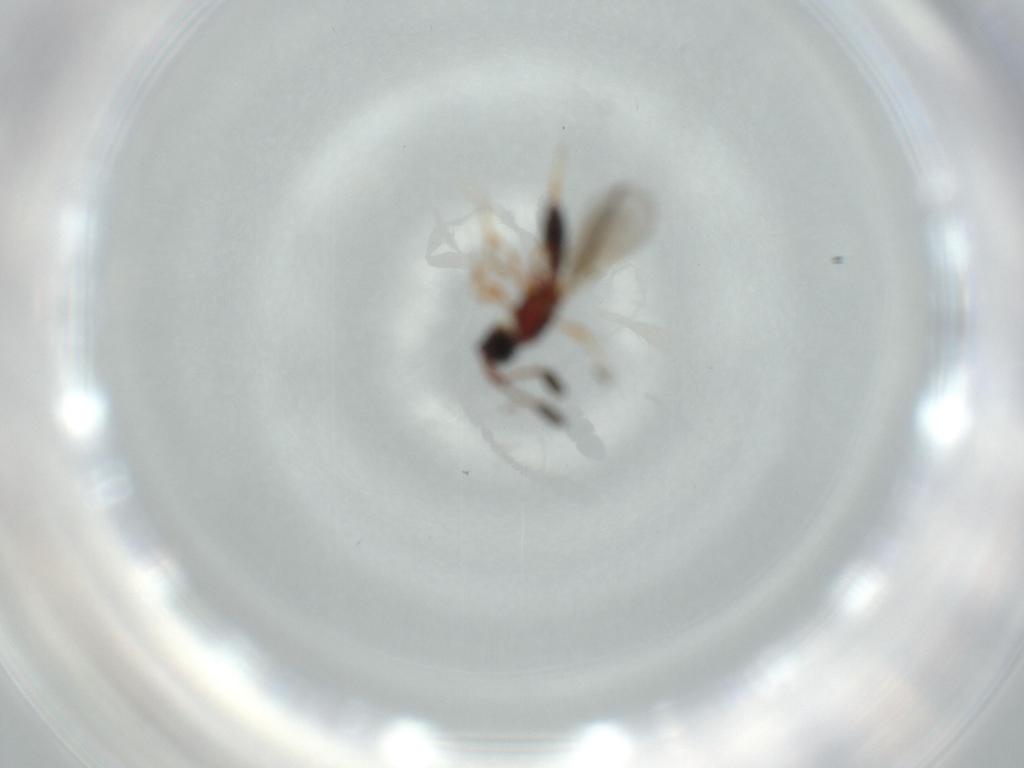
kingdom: Animalia
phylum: Arthropoda
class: Insecta
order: Hymenoptera
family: Diapriidae
